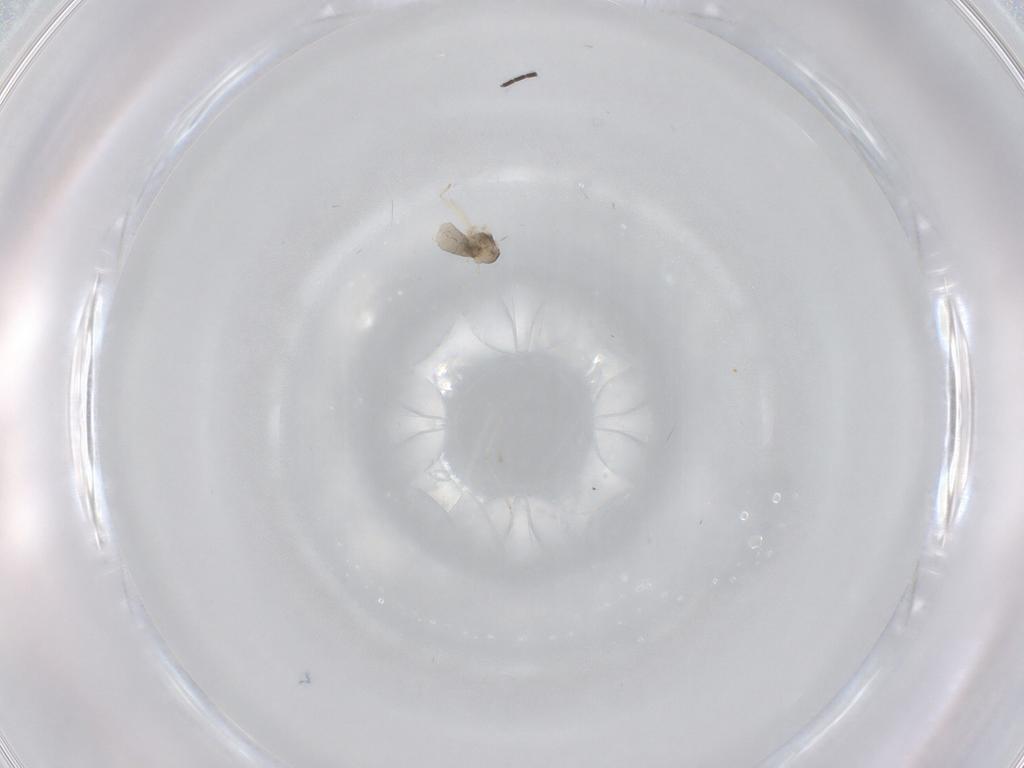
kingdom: Animalia
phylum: Arthropoda
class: Insecta
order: Diptera
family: Cecidomyiidae
